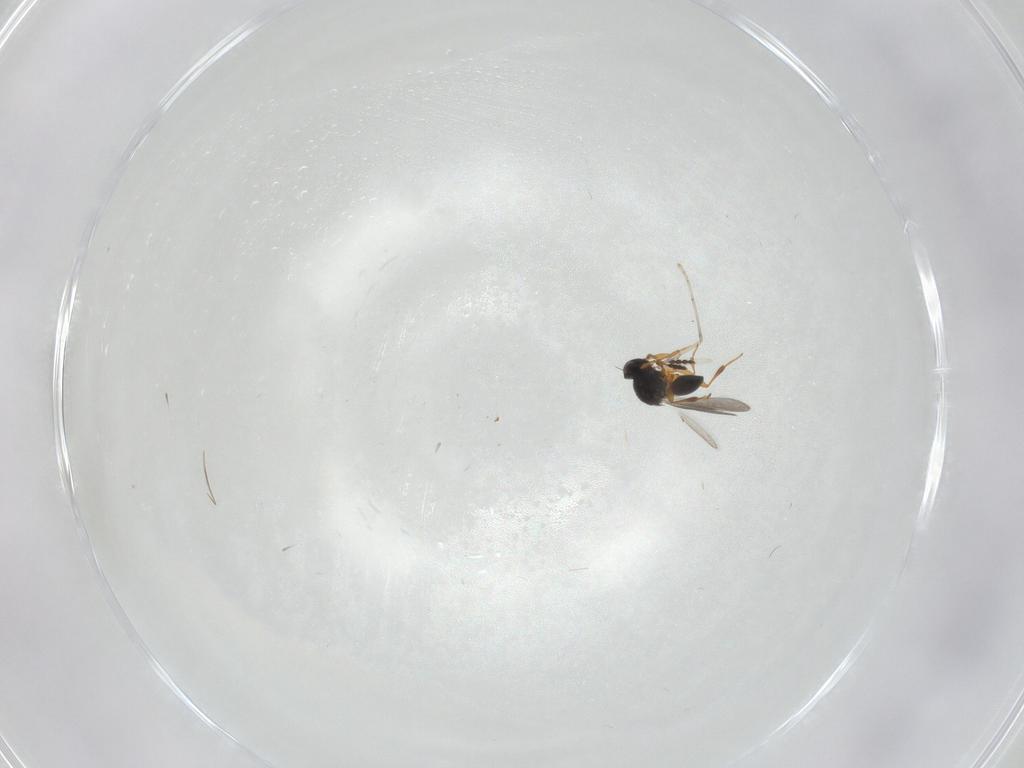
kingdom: Animalia
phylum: Arthropoda
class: Insecta
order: Hymenoptera
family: Platygastridae
